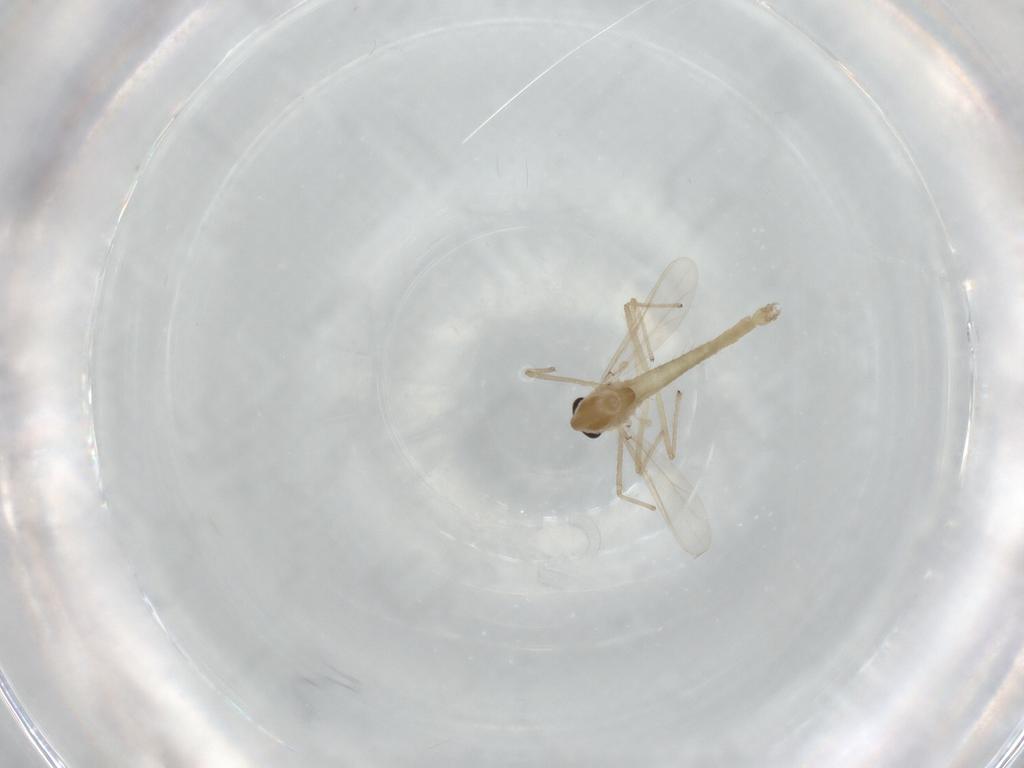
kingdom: Animalia
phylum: Arthropoda
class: Insecta
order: Diptera
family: Chironomidae
